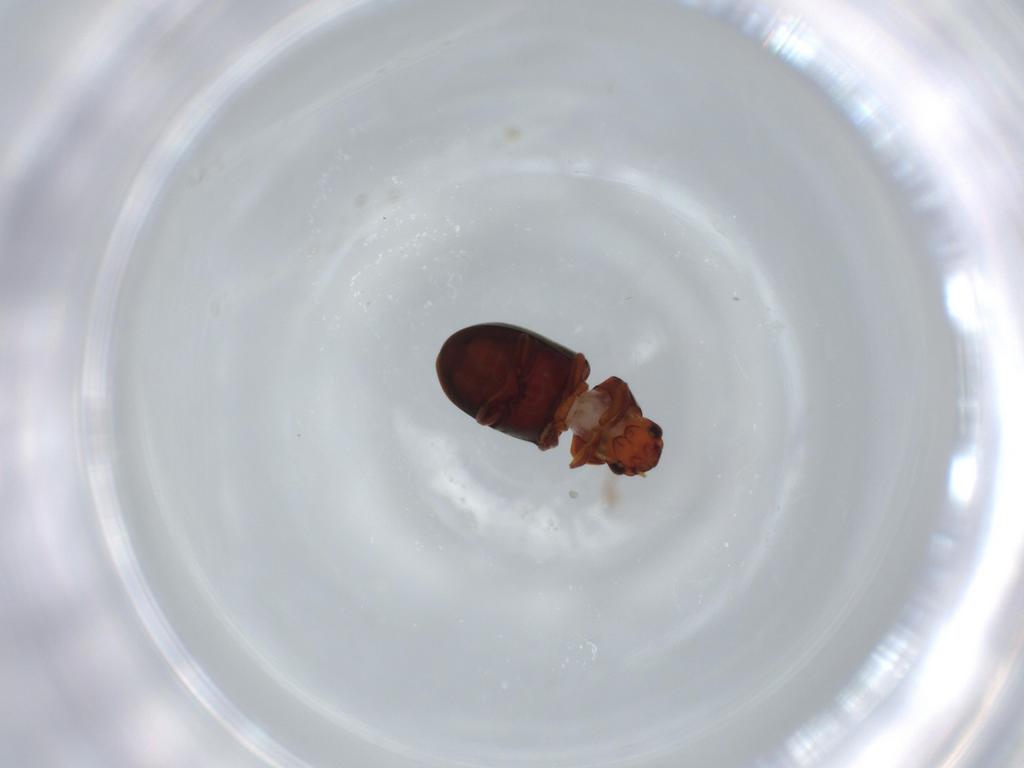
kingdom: Animalia
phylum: Arthropoda
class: Insecta
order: Coleoptera
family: Ptinidae
